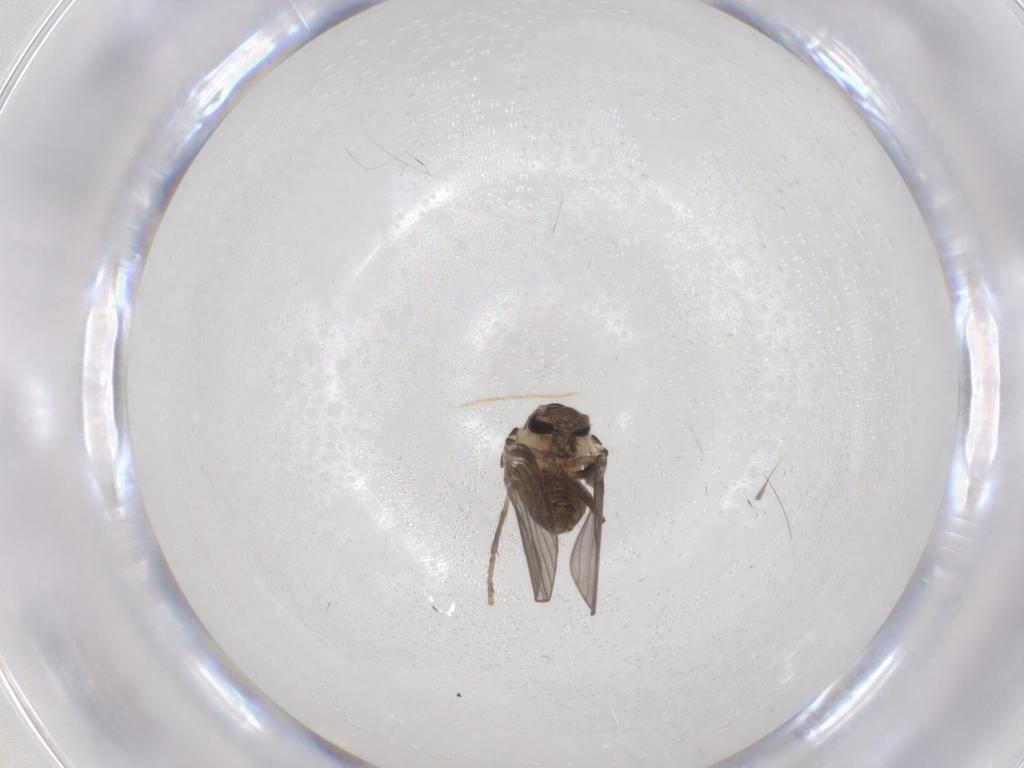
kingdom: Animalia
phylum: Arthropoda
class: Insecta
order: Diptera
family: Psychodidae
